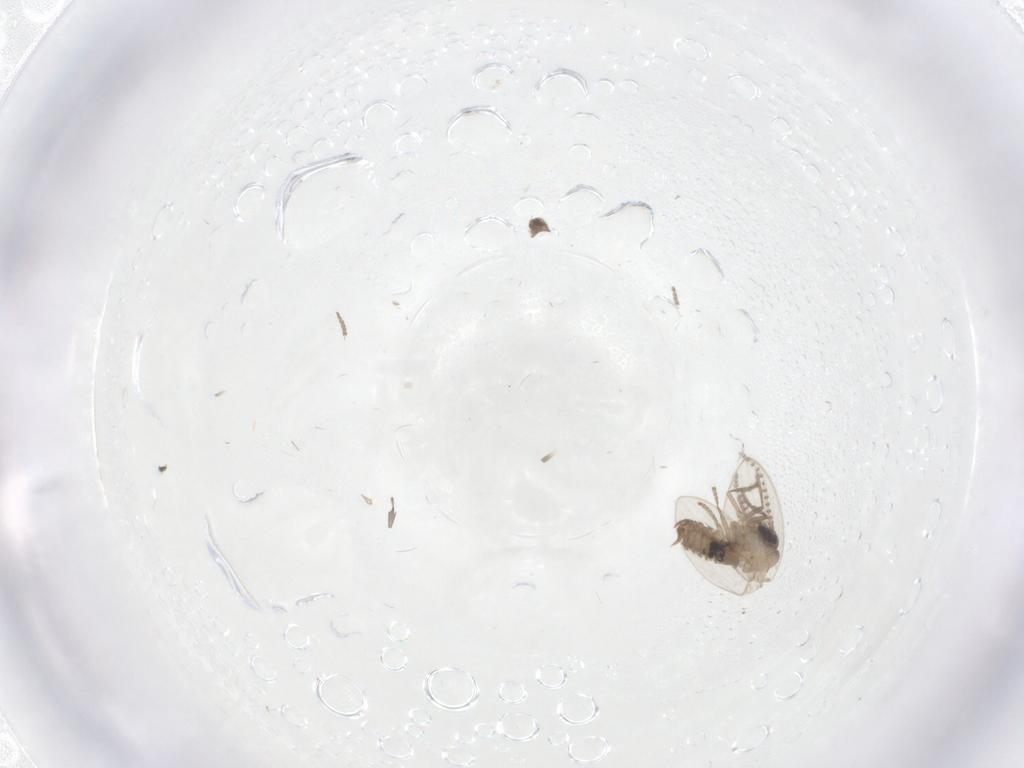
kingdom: Animalia
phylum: Arthropoda
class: Insecta
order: Diptera
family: Psychodidae
